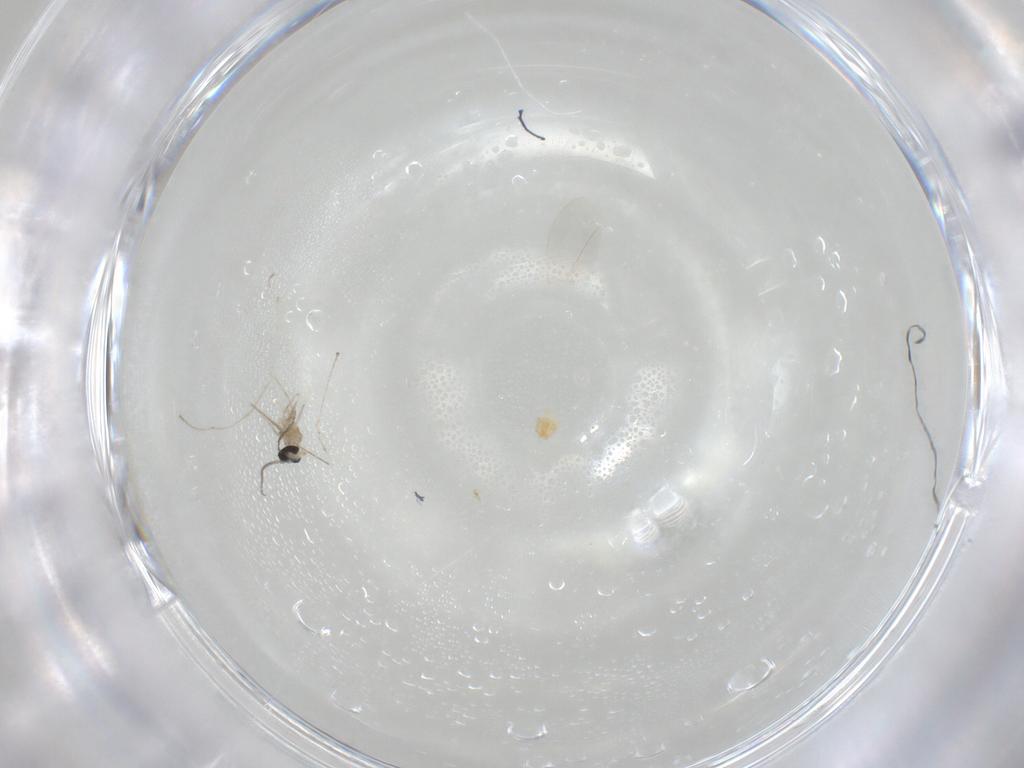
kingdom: Animalia
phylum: Arthropoda
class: Insecta
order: Diptera
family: Cecidomyiidae
